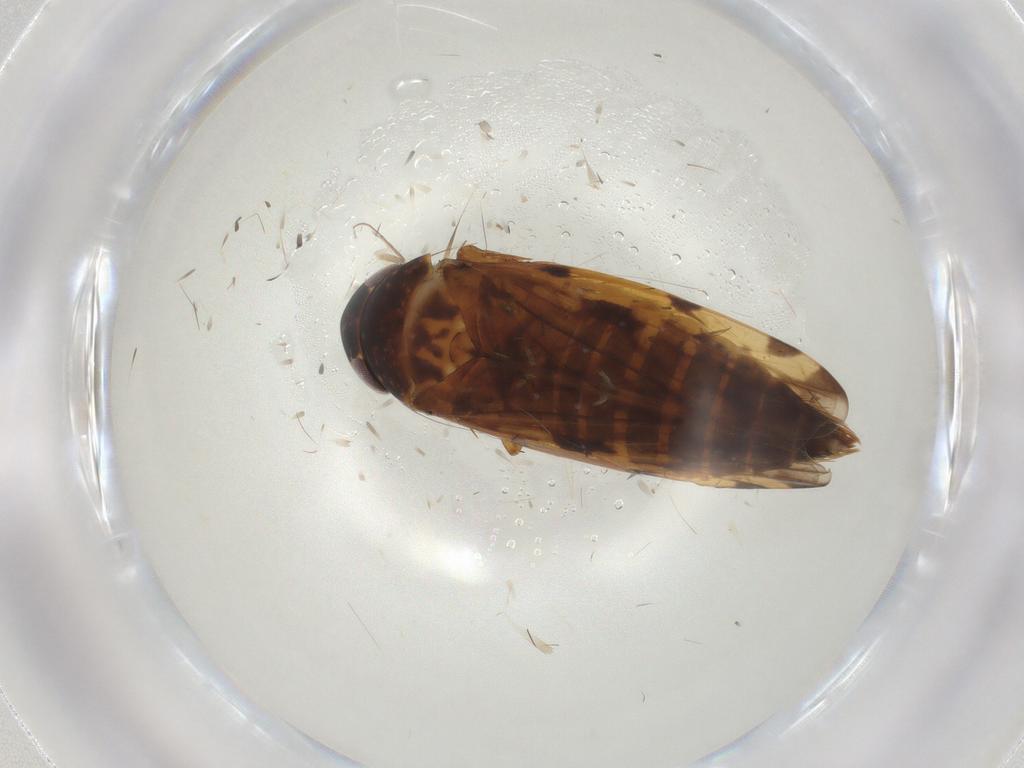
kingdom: Animalia
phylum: Arthropoda
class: Insecta
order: Hemiptera
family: Cicadellidae
